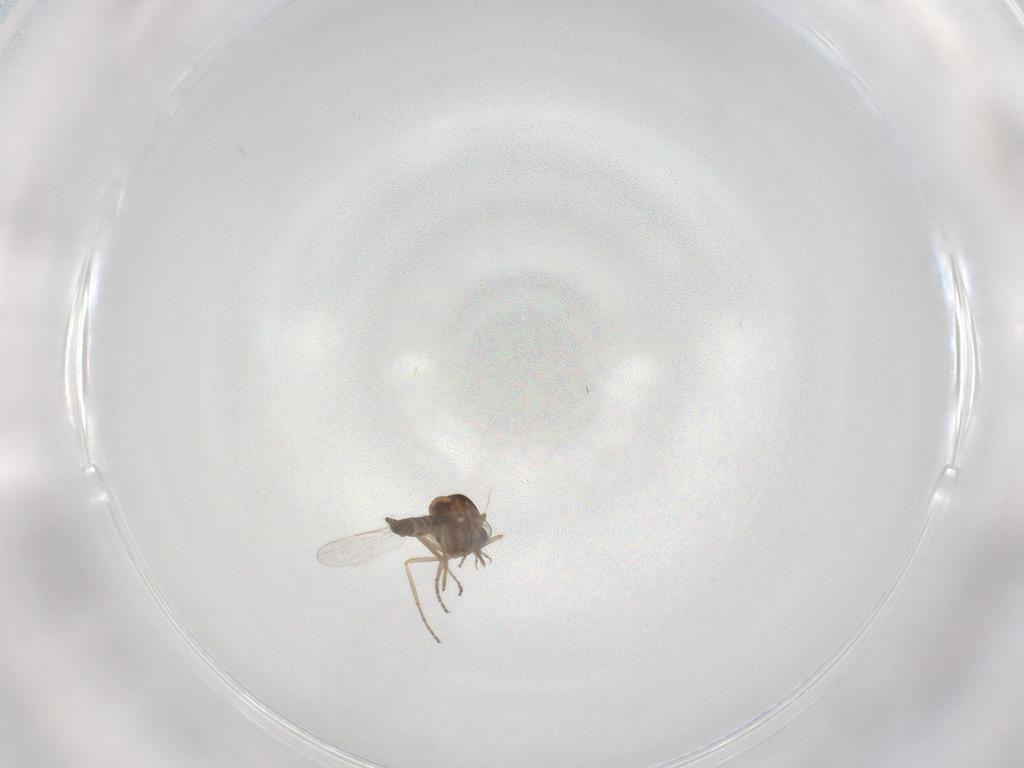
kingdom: Animalia
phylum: Arthropoda
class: Insecta
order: Diptera
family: Ceratopogonidae
